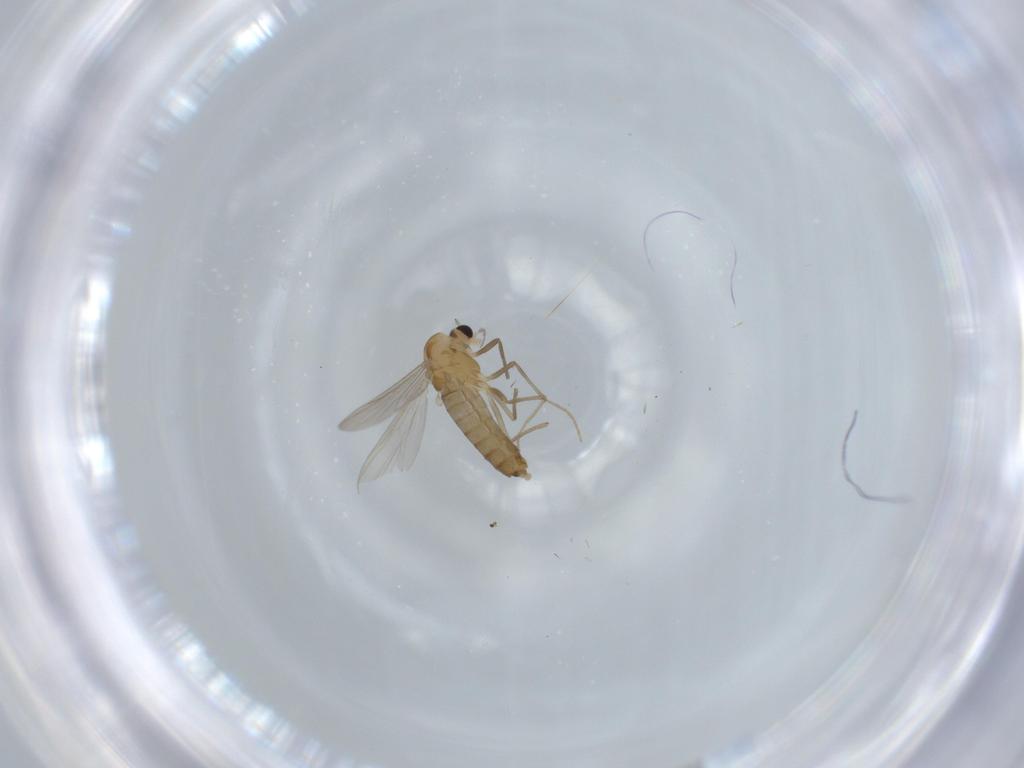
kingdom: Animalia
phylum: Arthropoda
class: Insecta
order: Diptera
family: Chironomidae
